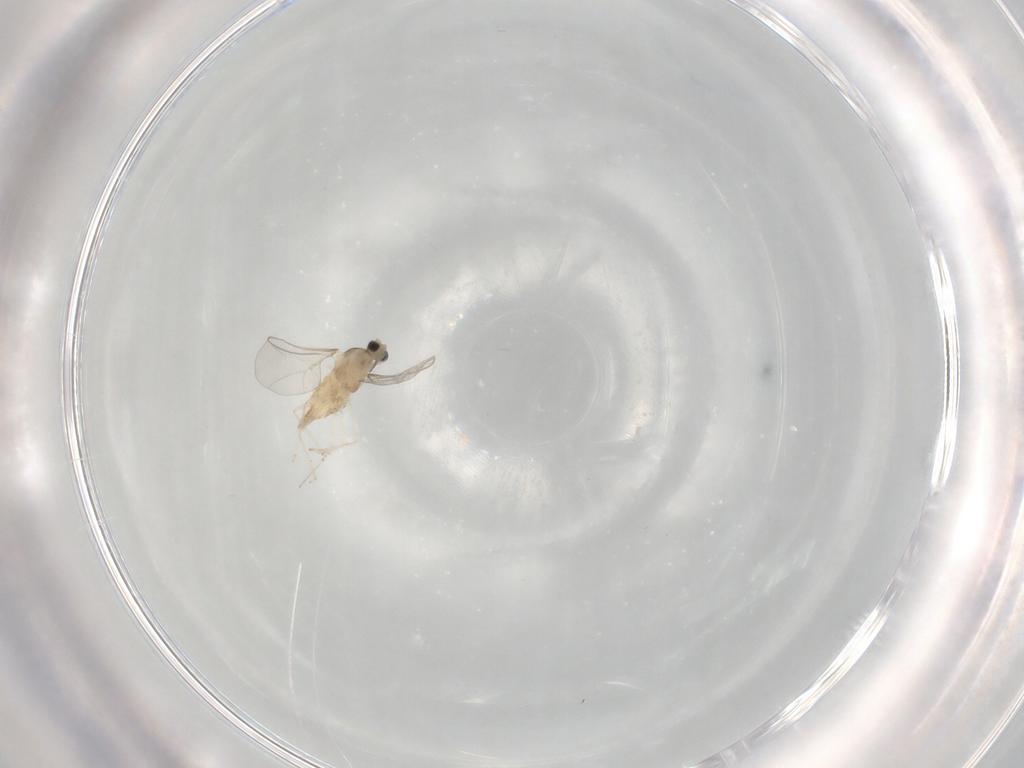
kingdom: Animalia
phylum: Arthropoda
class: Insecta
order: Diptera
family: Cecidomyiidae
